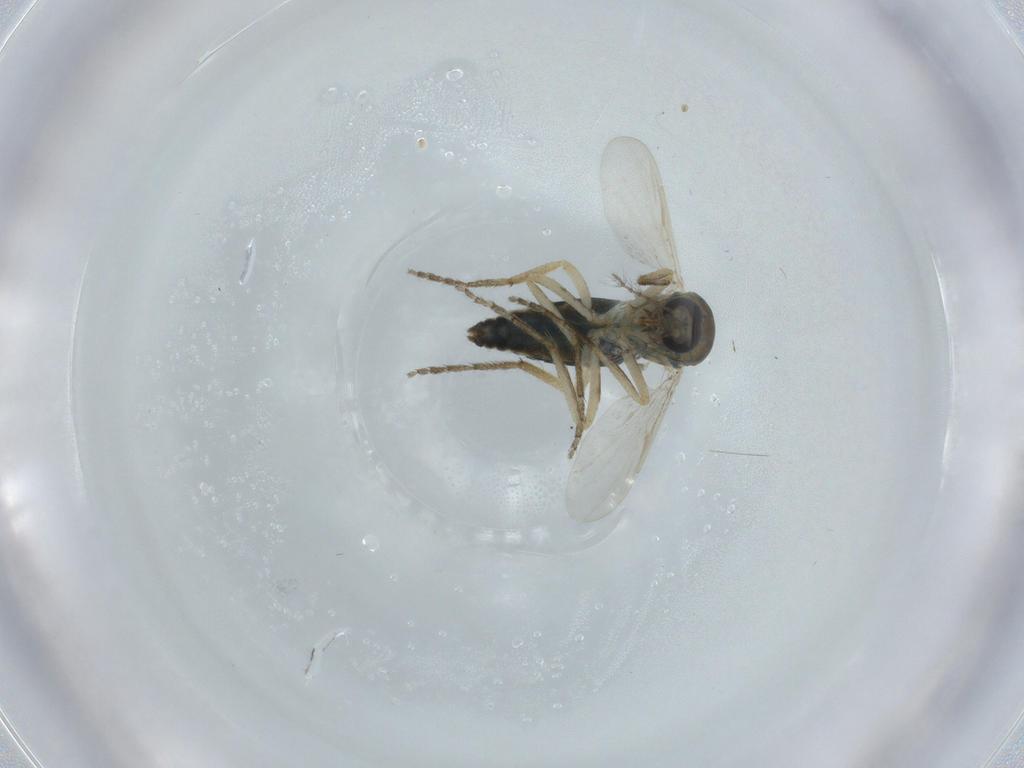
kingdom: Animalia
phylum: Arthropoda
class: Insecta
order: Diptera
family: Ceratopogonidae
